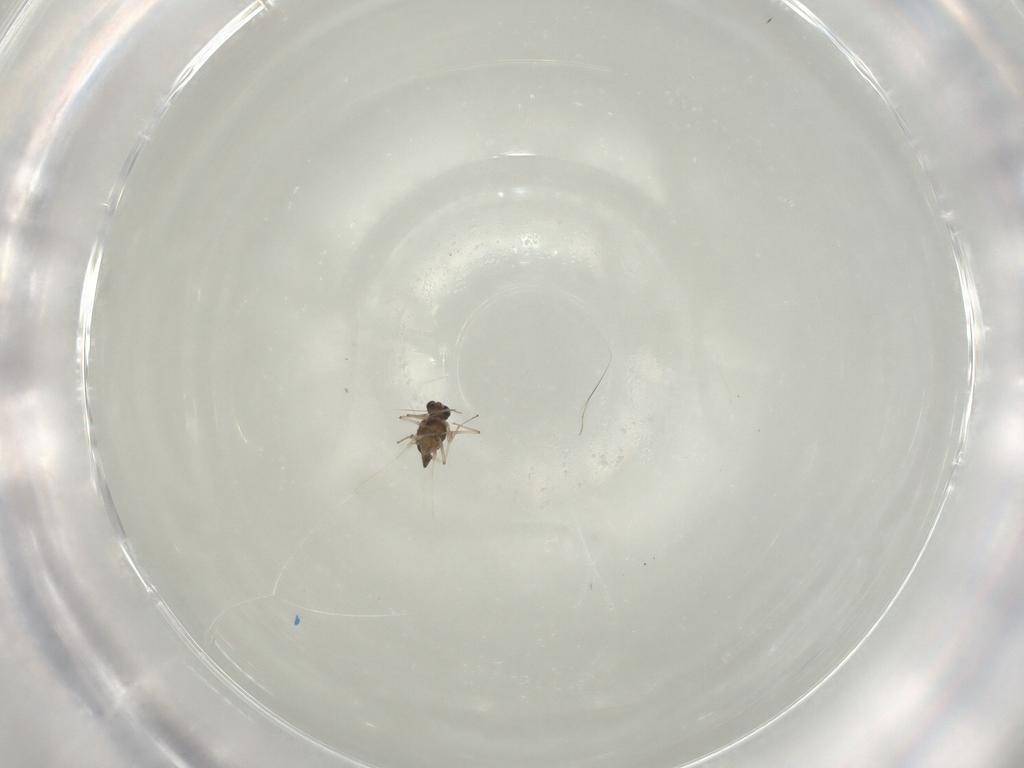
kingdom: Animalia
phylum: Arthropoda
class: Insecta
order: Diptera
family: Chironomidae
